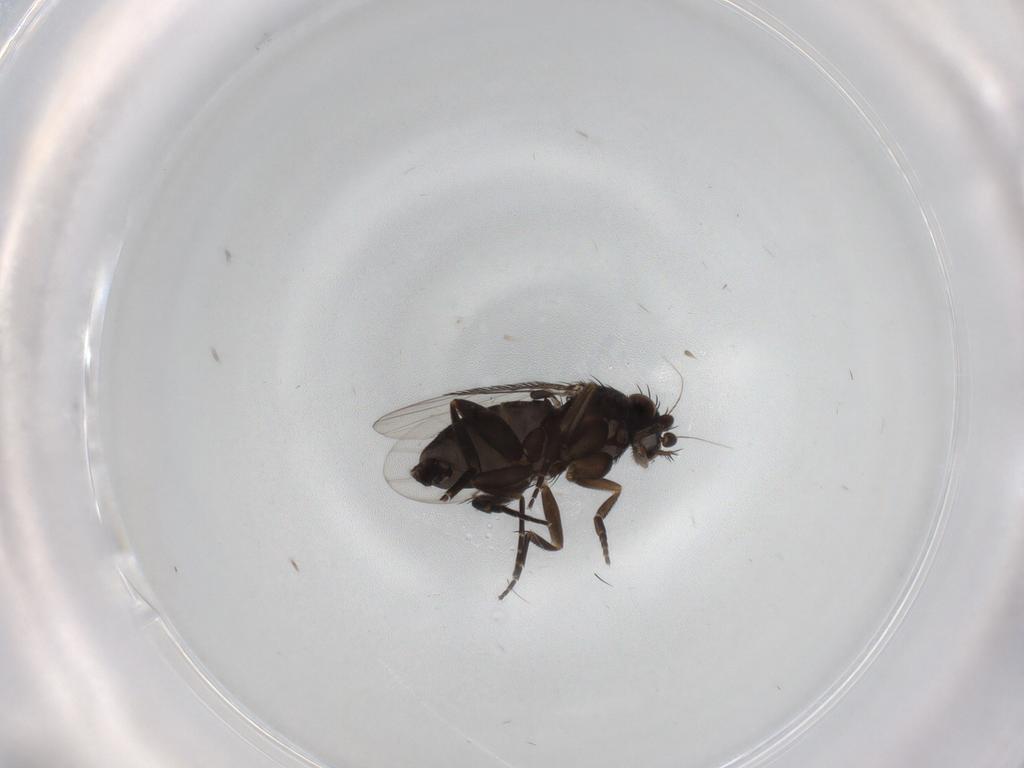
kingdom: Animalia
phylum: Arthropoda
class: Insecta
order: Diptera
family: Phoridae
